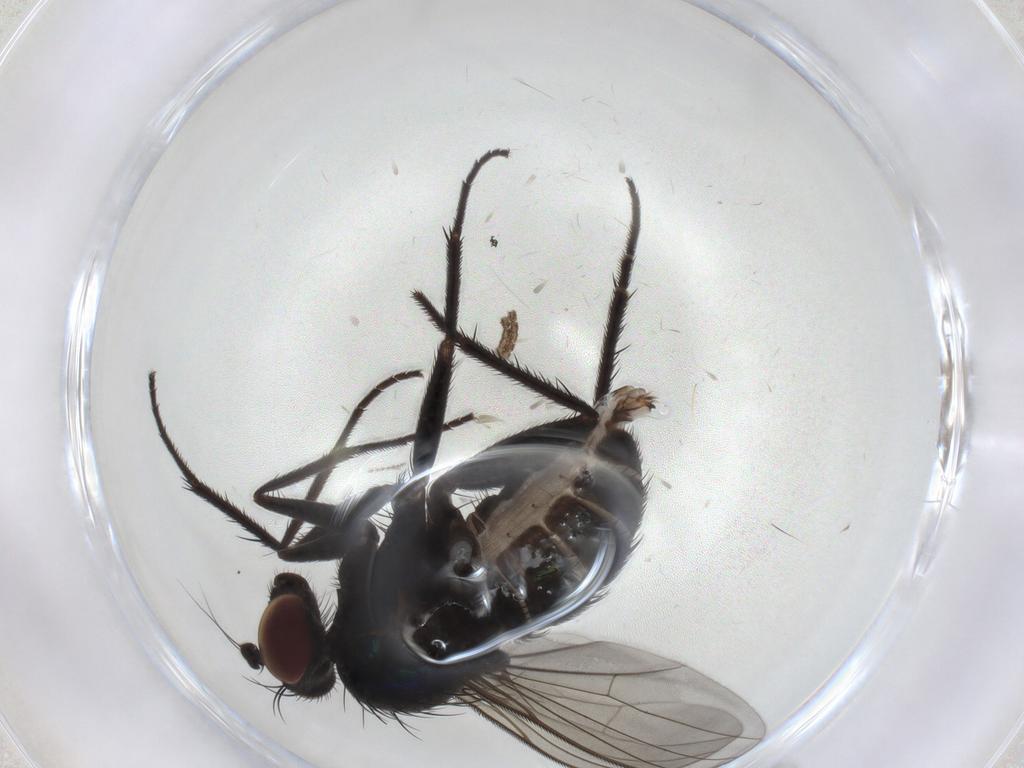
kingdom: Animalia
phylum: Arthropoda
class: Insecta
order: Diptera
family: Dolichopodidae
